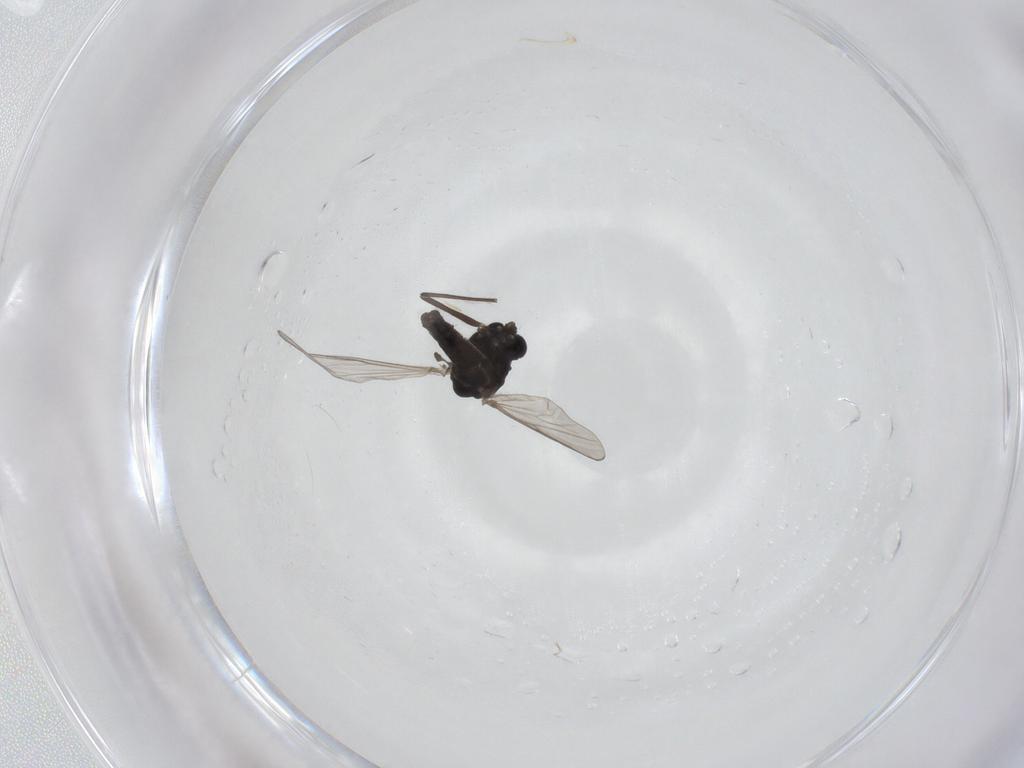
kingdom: Animalia
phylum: Arthropoda
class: Insecta
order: Diptera
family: Chironomidae
